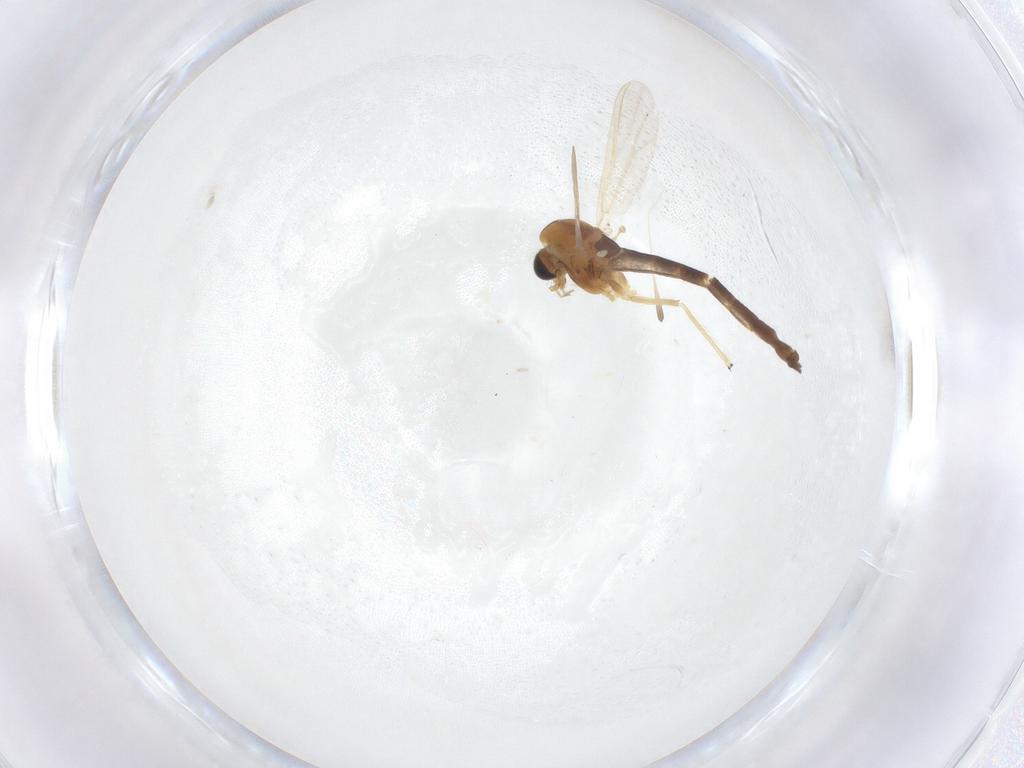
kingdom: Animalia
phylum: Arthropoda
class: Insecta
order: Diptera
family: Chironomidae
